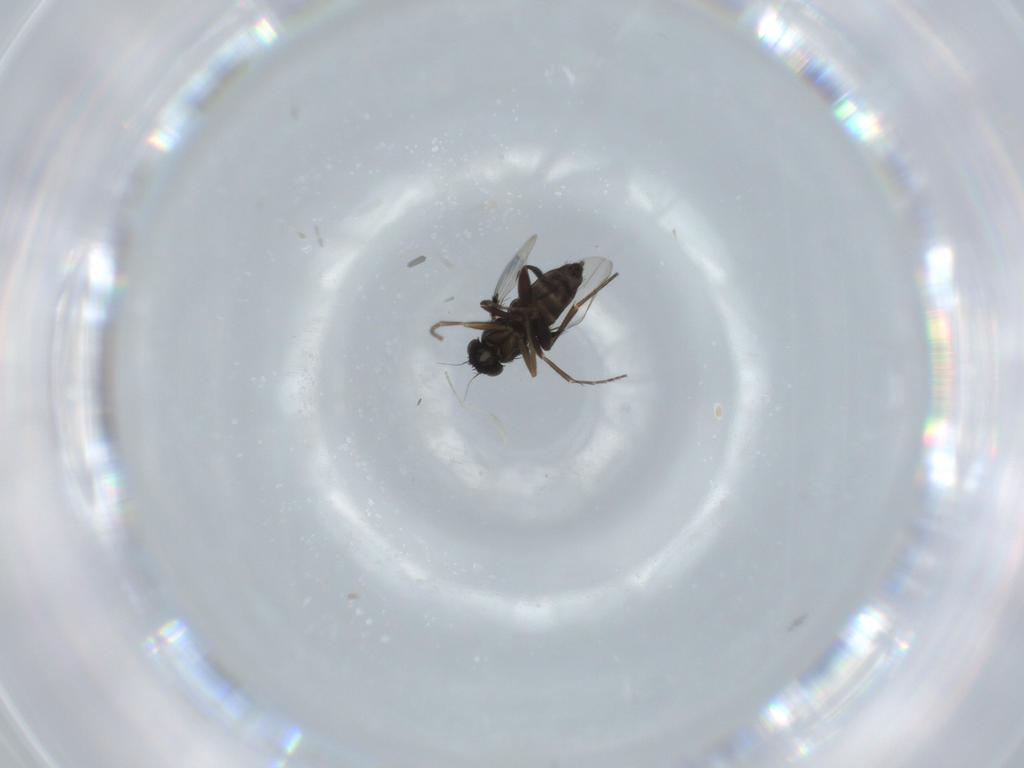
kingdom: Animalia
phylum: Arthropoda
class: Insecta
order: Diptera
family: Phoridae
